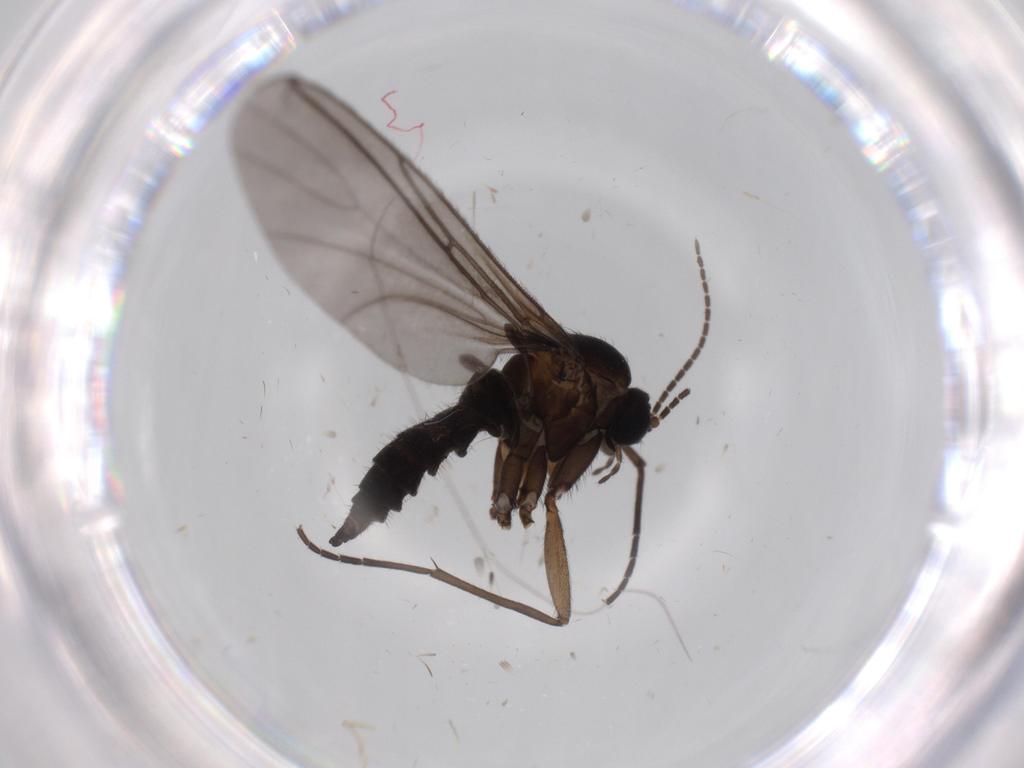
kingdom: Animalia
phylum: Arthropoda
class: Insecta
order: Diptera
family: Sciaridae
